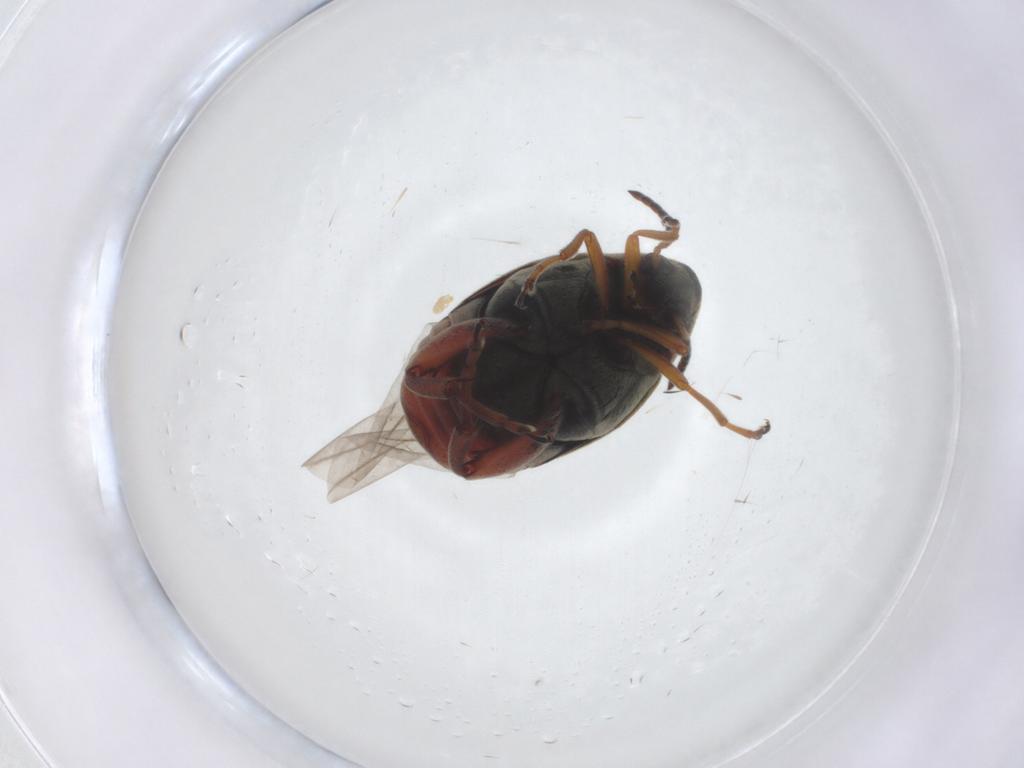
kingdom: Animalia
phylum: Arthropoda
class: Insecta
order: Coleoptera
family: Chrysomelidae
